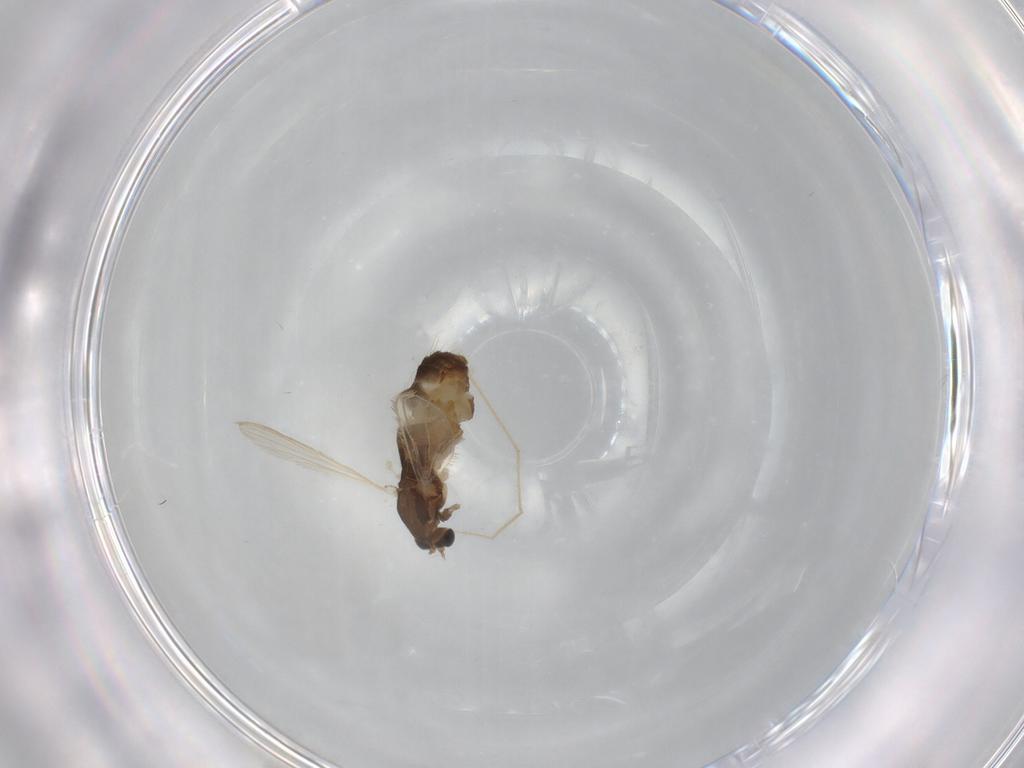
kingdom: Animalia
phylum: Arthropoda
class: Insecta
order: Diptera
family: Chironomidae
